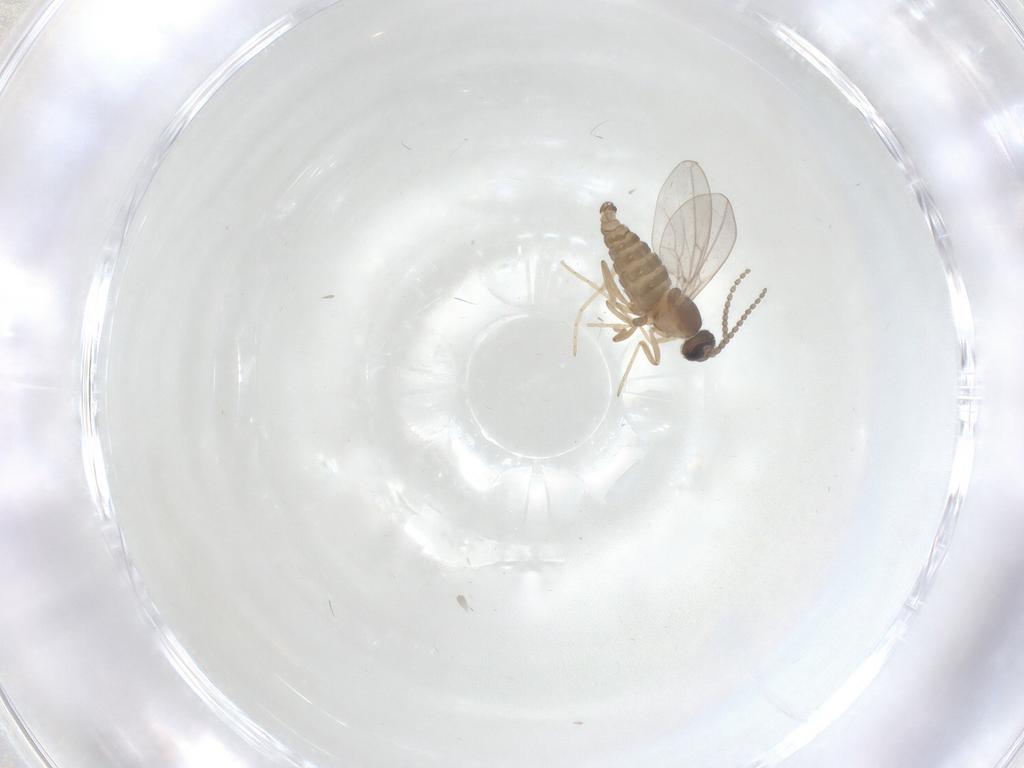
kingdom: Animalia
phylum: Arthropoda
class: Insecta
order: Diptera
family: Cecidomyiidae
